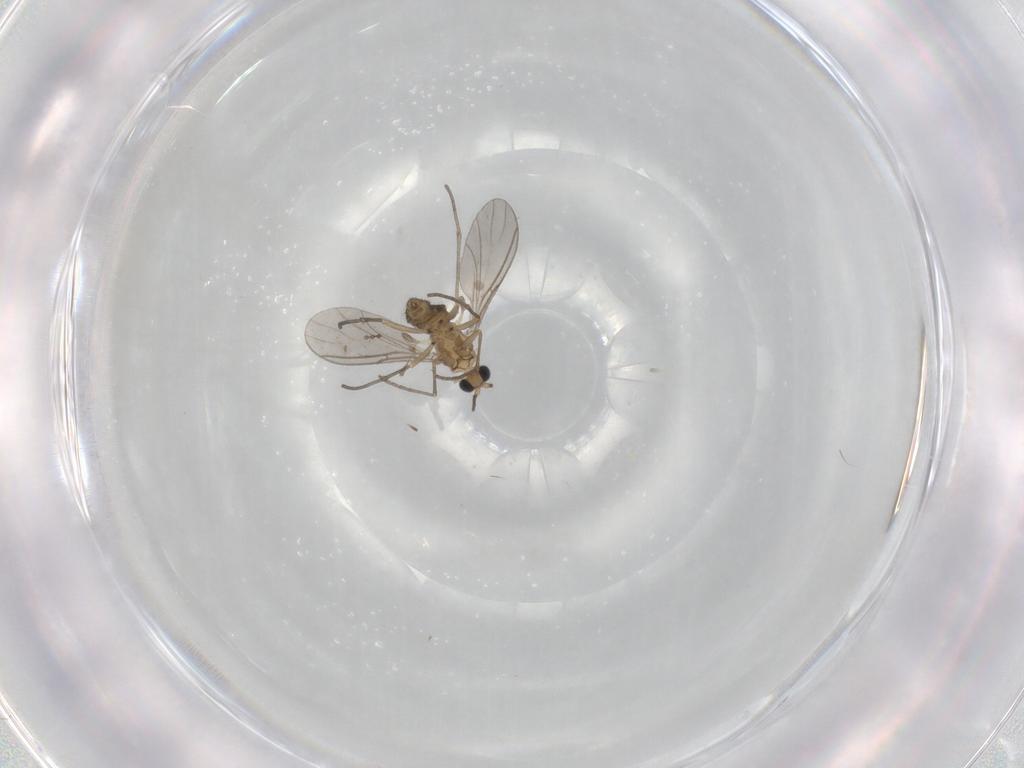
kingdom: Animalia
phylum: Arthropoda
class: Insecta
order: Diptera
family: Sciaridae
